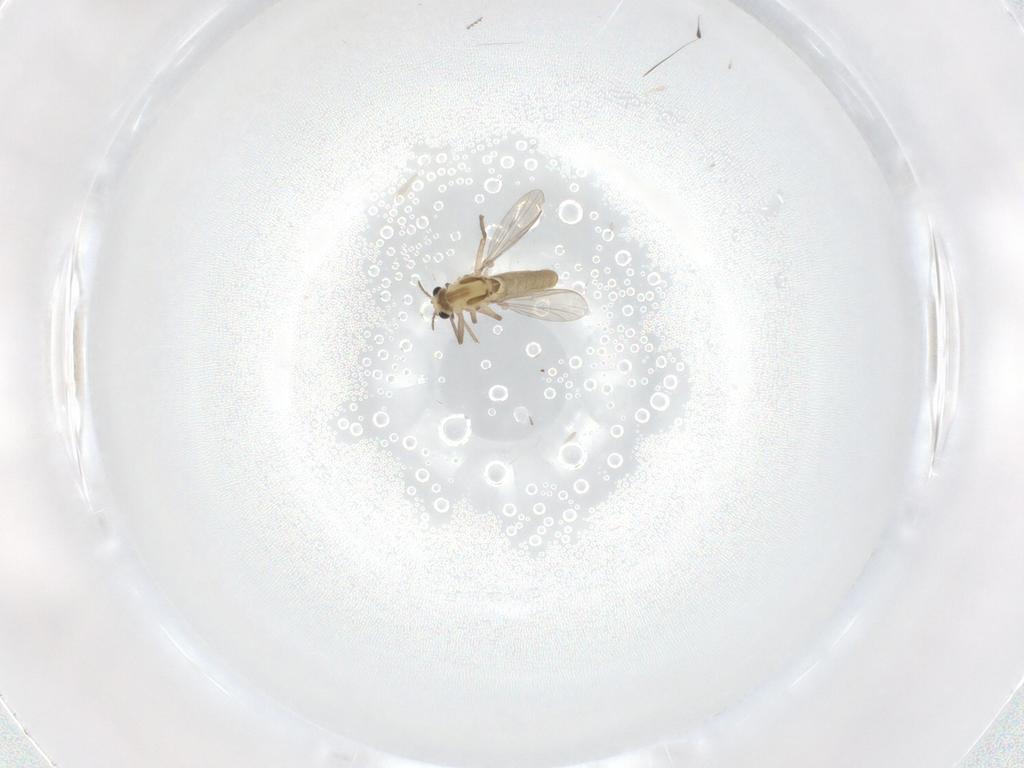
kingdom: Animalia
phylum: Arthropoda
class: Insecta
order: Diptera
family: Chironomidae
